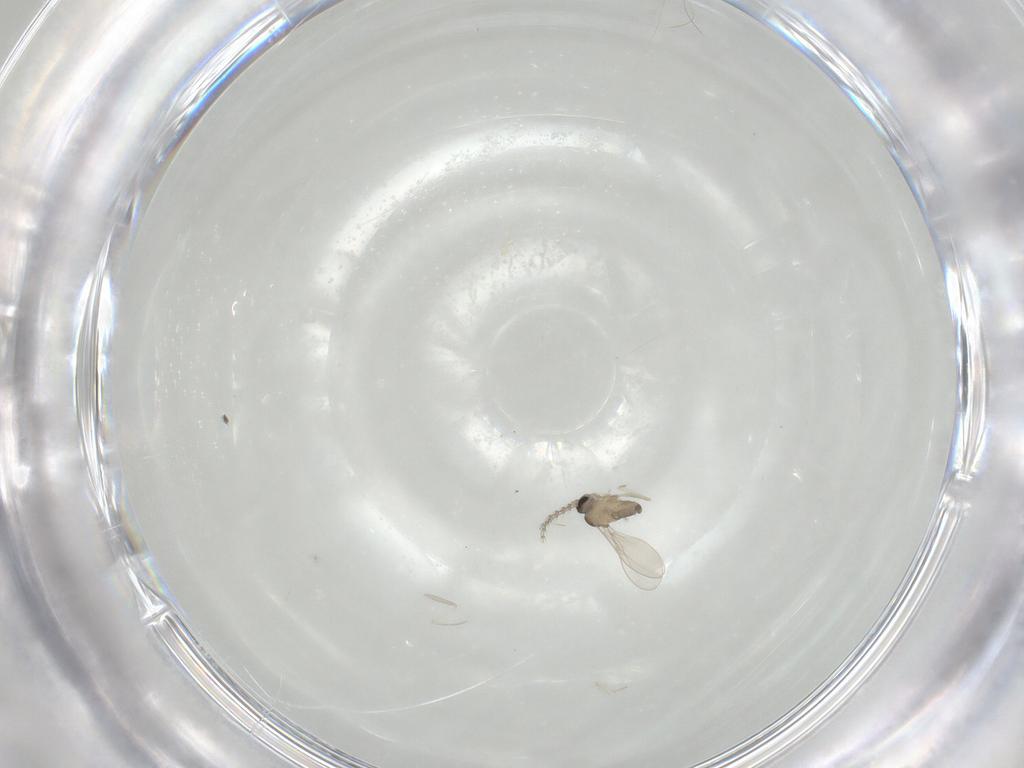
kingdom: Animalia
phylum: Arthropoda
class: Insecta
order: Diptera
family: Cecidomyiidae
